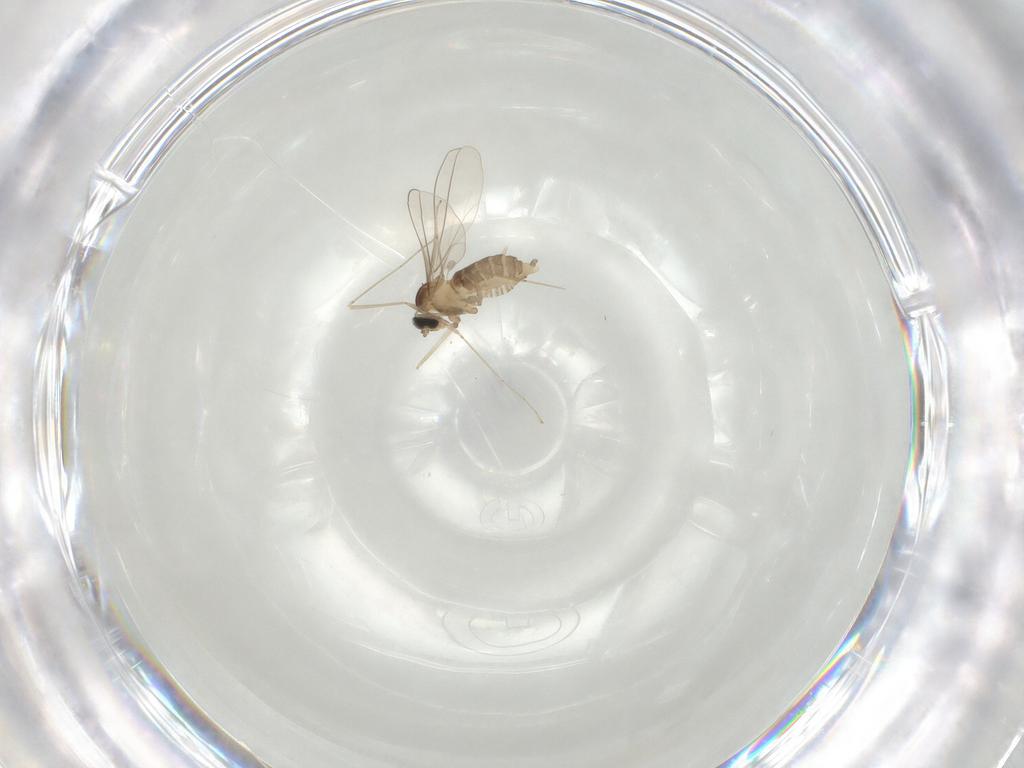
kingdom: Animalia
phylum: Arthropoda
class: Insecta
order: Diptera
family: Cecidomyiidae
